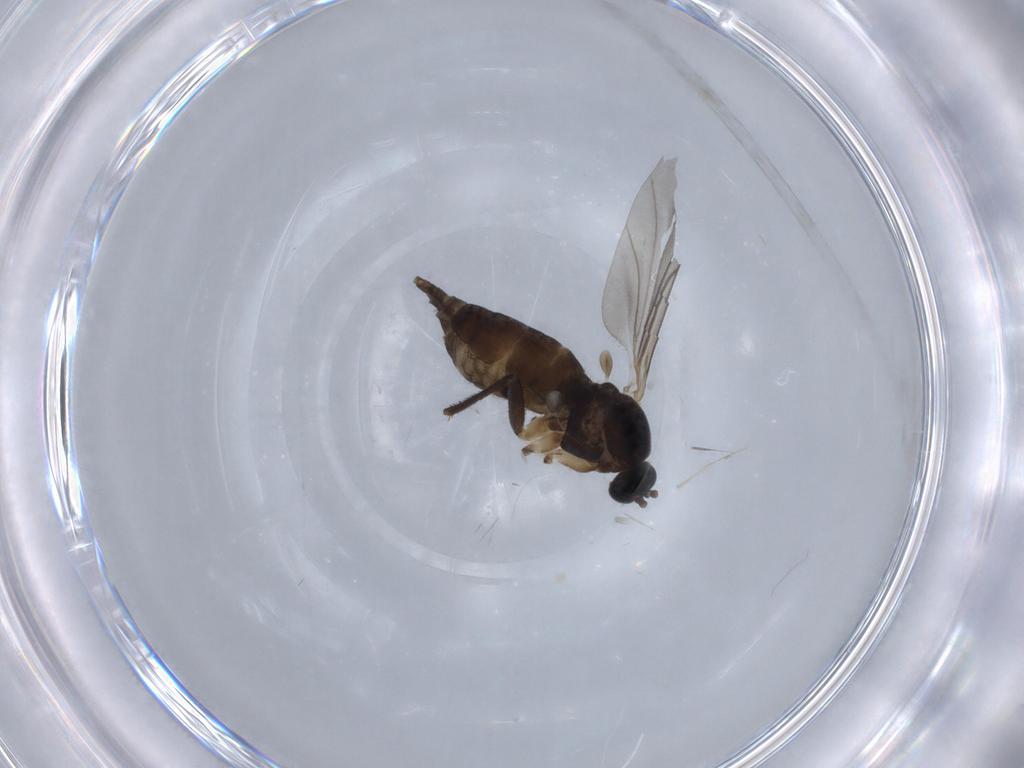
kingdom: Animalia
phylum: Arthropoda
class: Insecta
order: Diptera
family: Sciaridae
